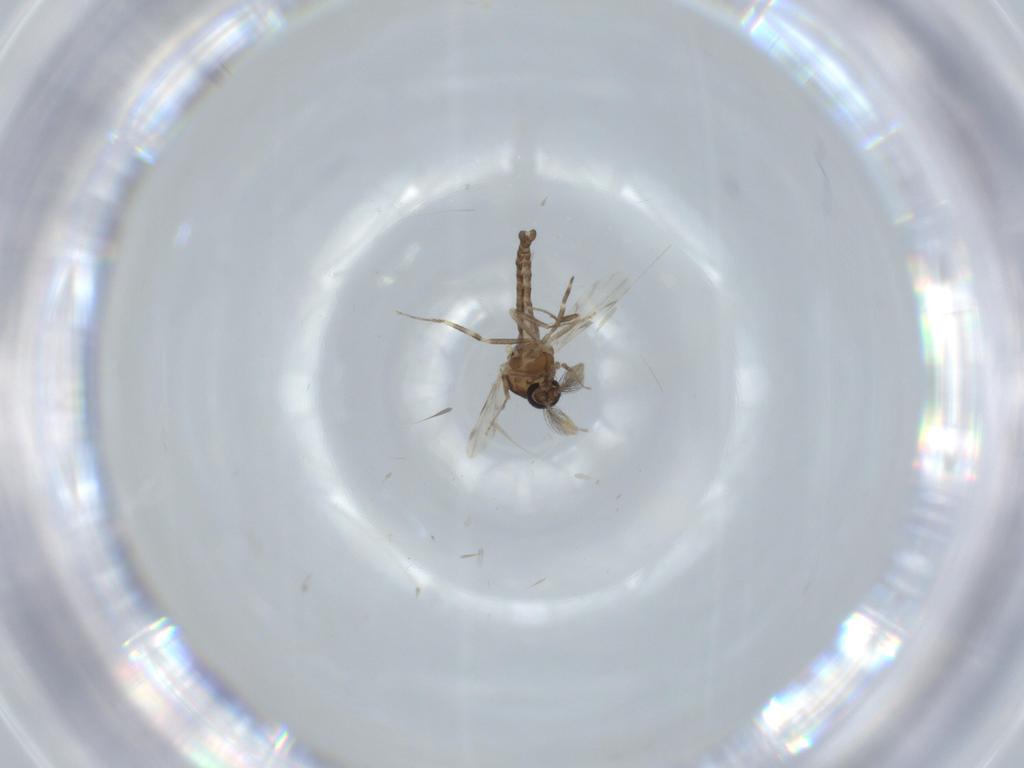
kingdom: Animalia
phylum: Arthropoda
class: Insecta
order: Diptera
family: Ceratopogonidae
